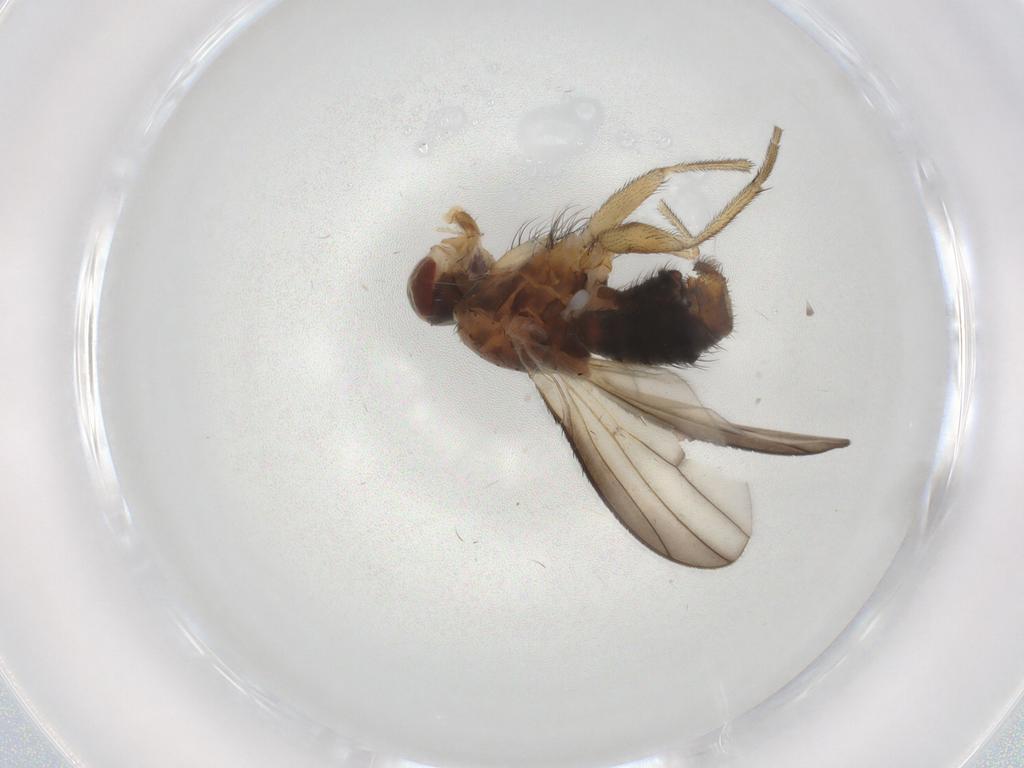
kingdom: Animalia
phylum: Arthropoda
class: Insecta
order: Diptera
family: Heleomyzidae
